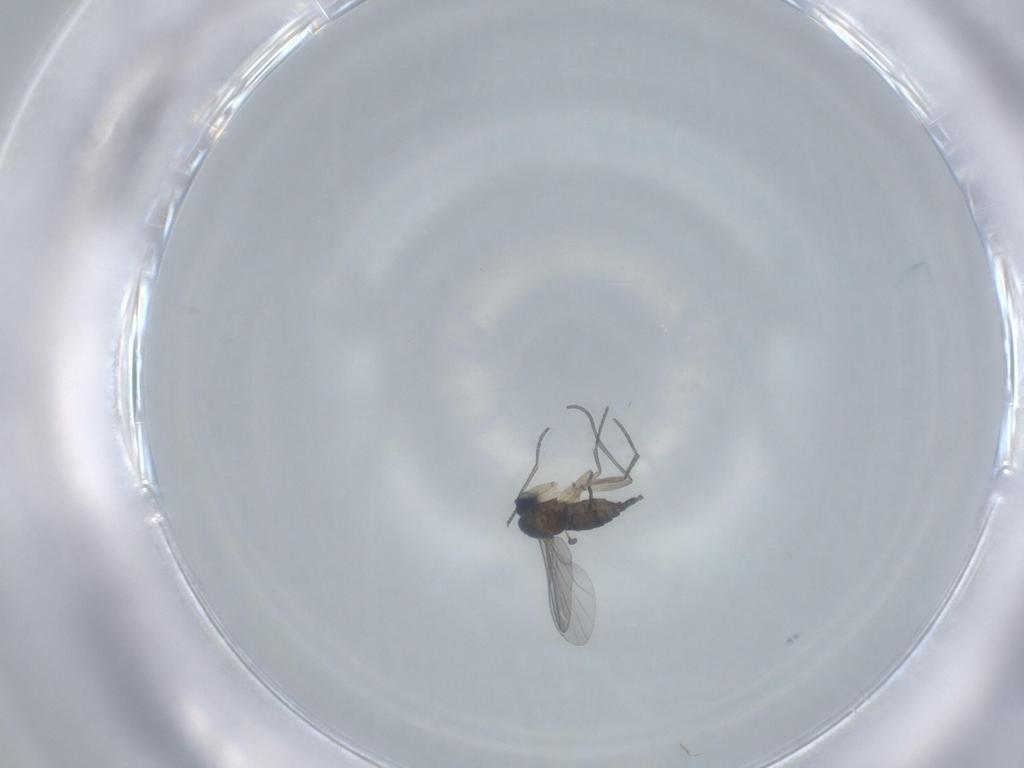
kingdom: Animalia
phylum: Arthropoda
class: Insecta
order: Diptera
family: Sciaridae
